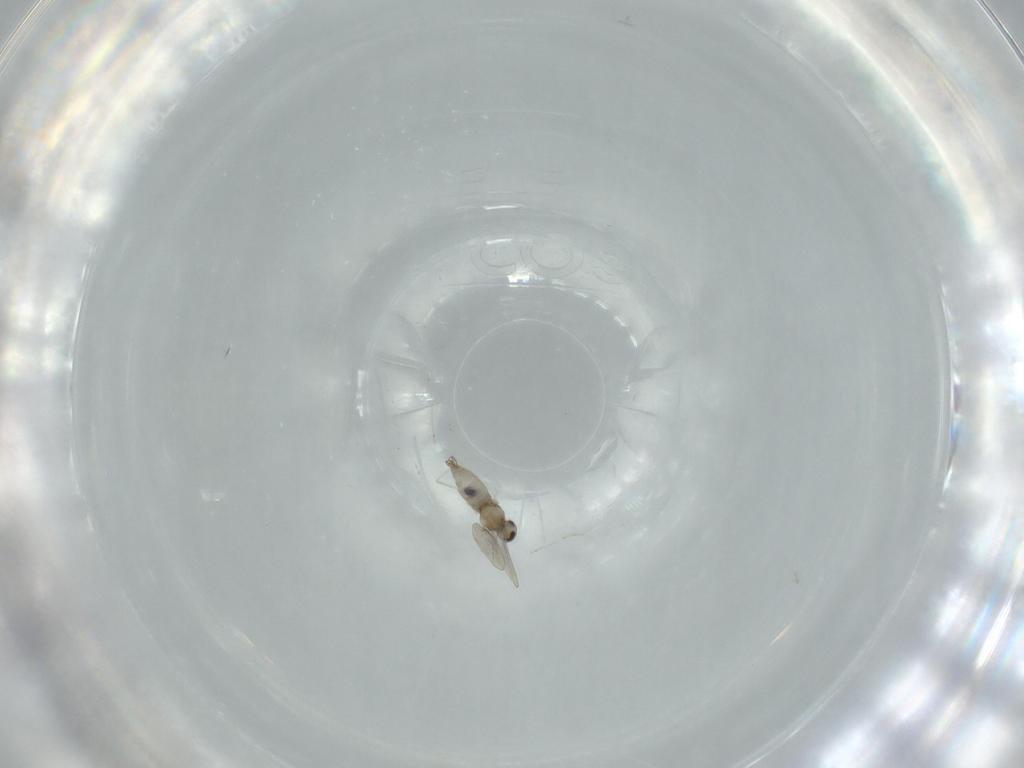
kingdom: Animalia
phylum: Arthropoda
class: Insecta
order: Diptera
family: Cecidomyiidae
